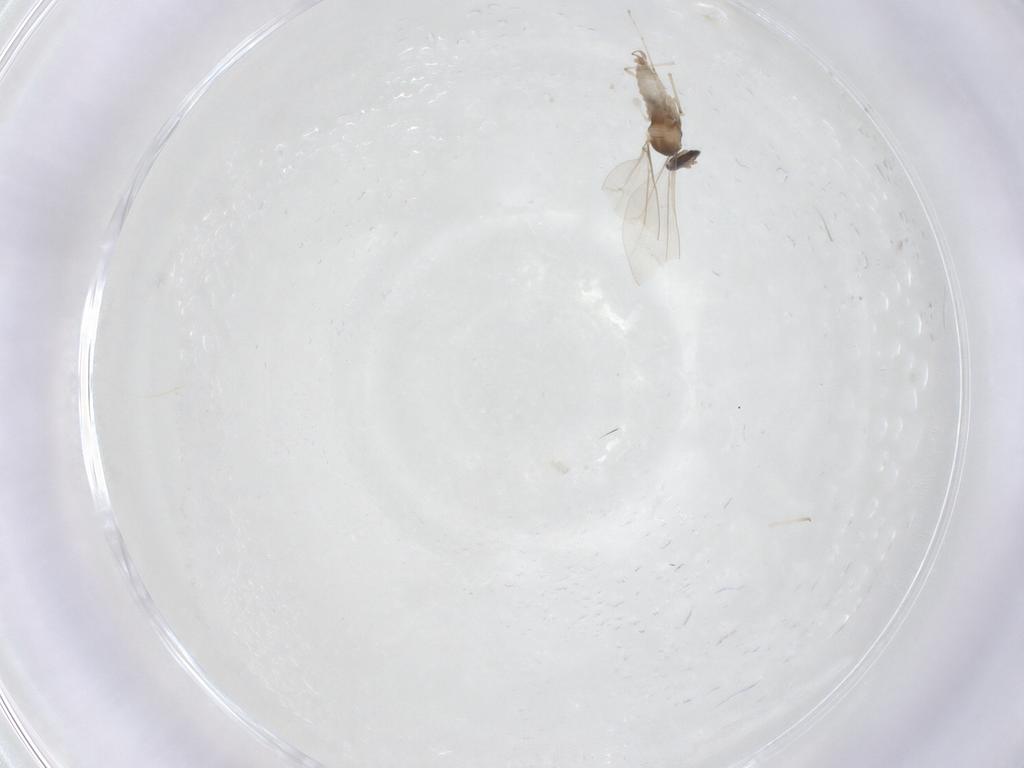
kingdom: Animalia
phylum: Arthropoda
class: Insecta
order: Diptera
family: Cecidomyiidae
